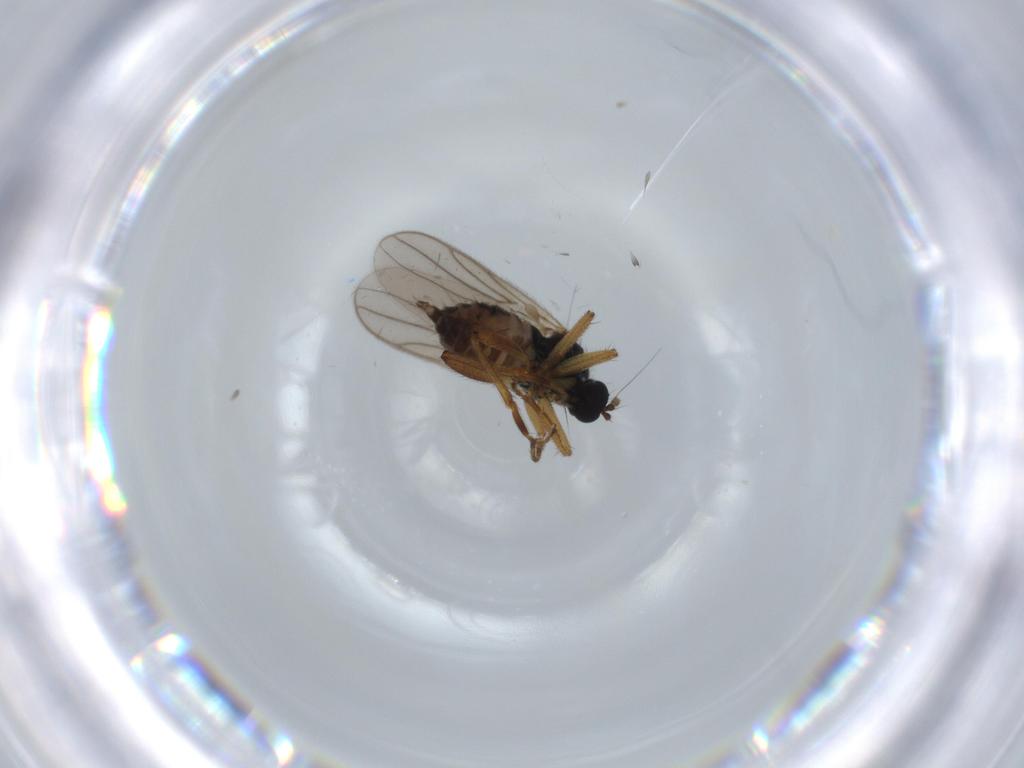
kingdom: Animalia
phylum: Arthropoda
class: Insecta
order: Diptera
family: Hybotidae
